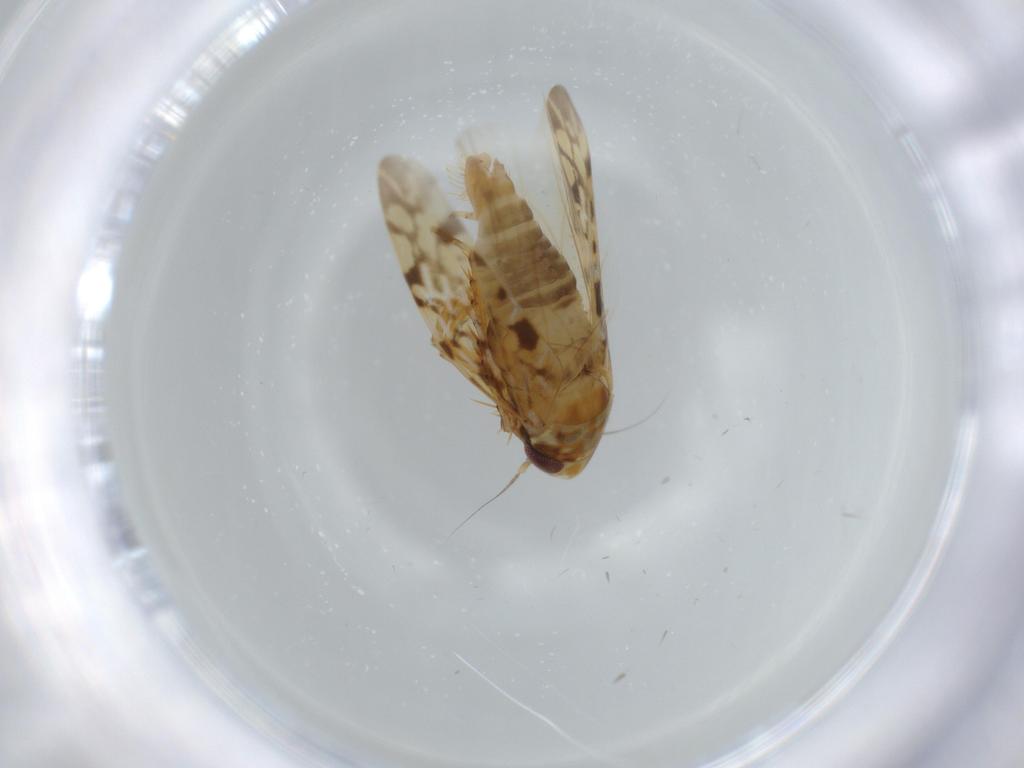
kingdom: Animalia
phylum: Arthropoda
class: Insecta
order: Hemiptera
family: Cicadellidae
